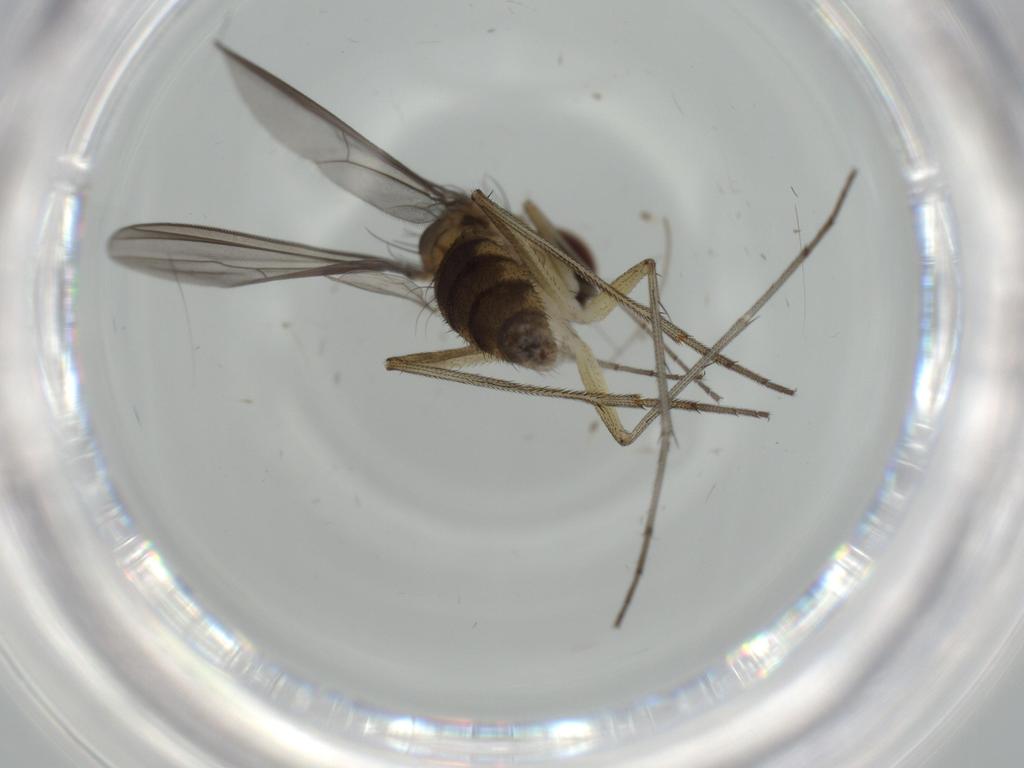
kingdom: Animalia
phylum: Arthropoda
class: Insecta
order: Diptera
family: Dolichopodidae
